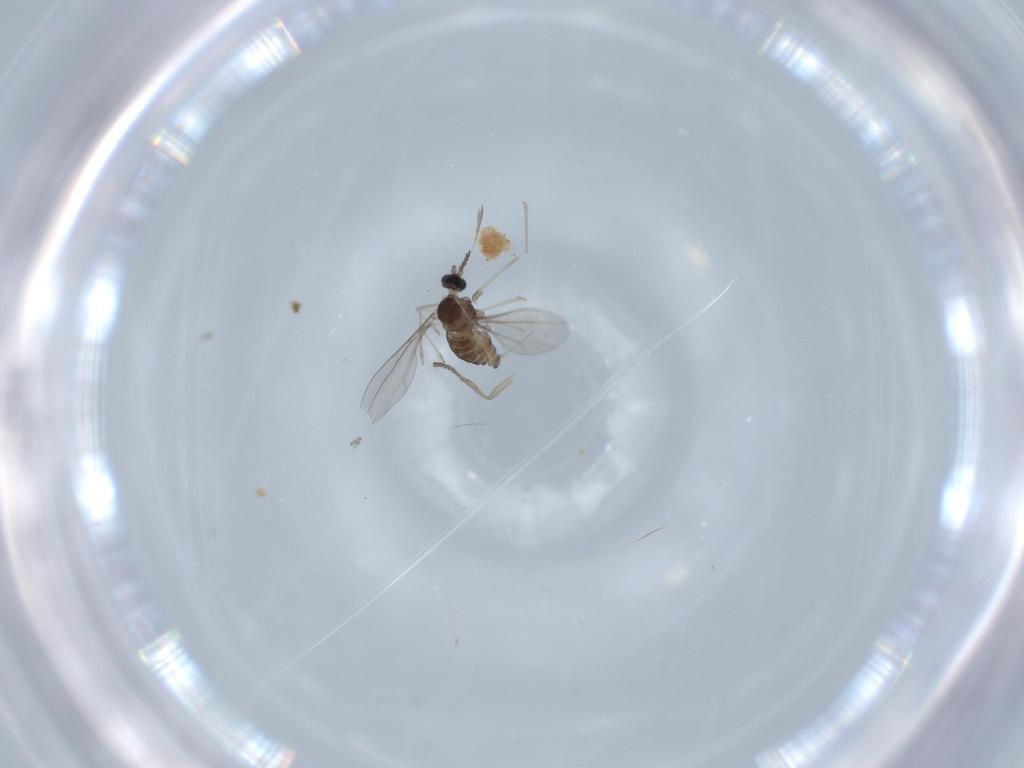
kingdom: Animalia
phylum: Arthropoda
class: Insecta
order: Diptera
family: Cecidomyiidae
